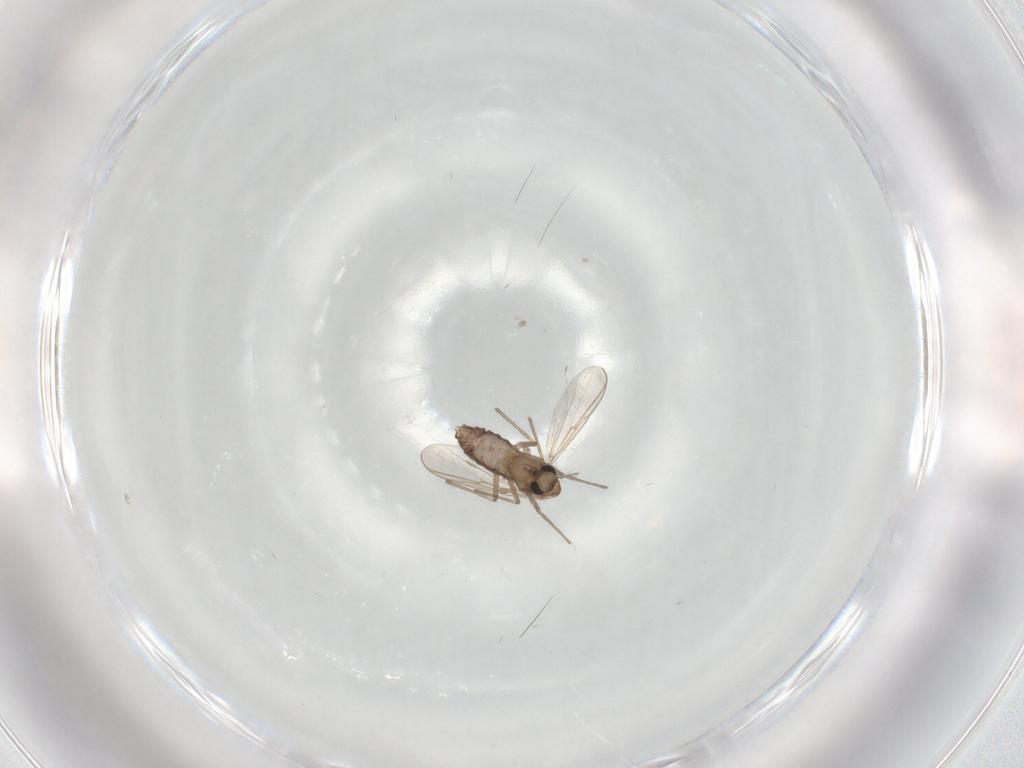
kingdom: Animalia
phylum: Arthropoda
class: Insecta
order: Diptera
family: Chironomidae
